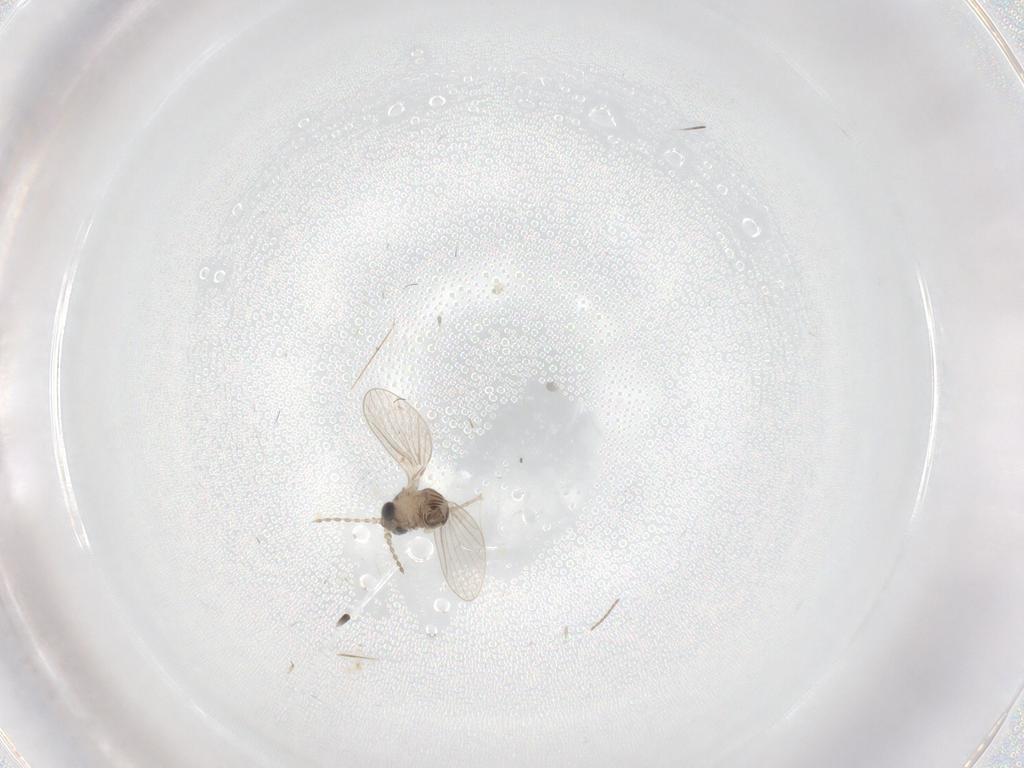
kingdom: Animalia
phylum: Arthropoda
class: Insecta
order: Diptera
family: Cecidomyiidae
